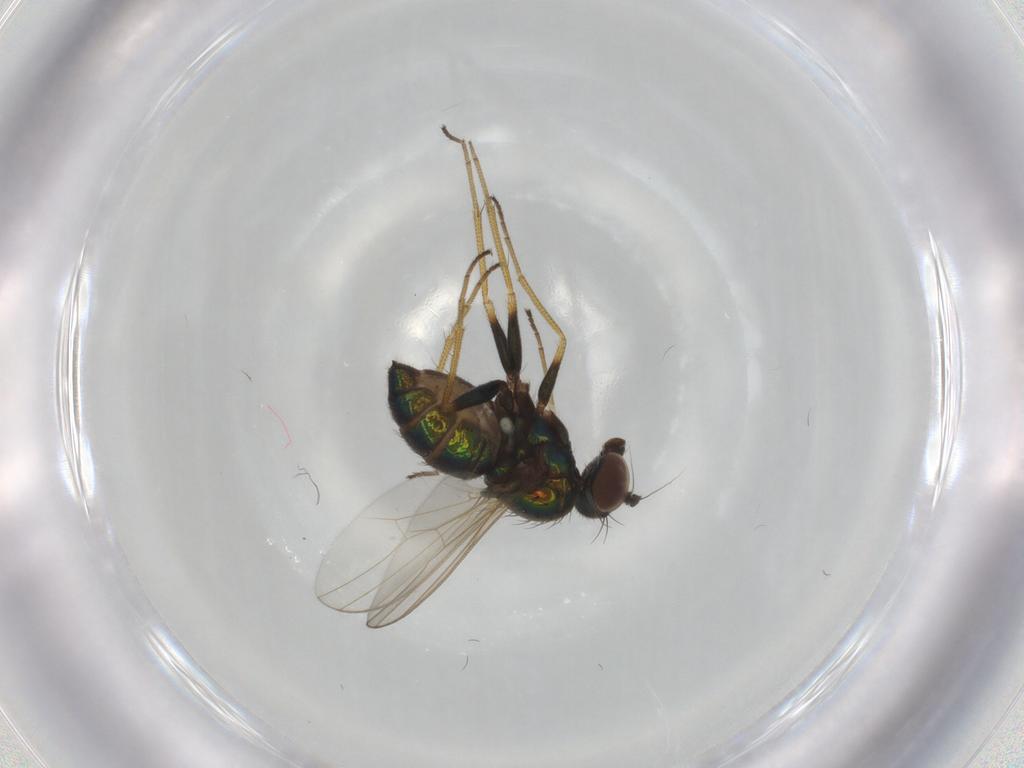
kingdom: Animalia
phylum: Arthropoda
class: Insecta
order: Diptera
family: Dolichopodidae
